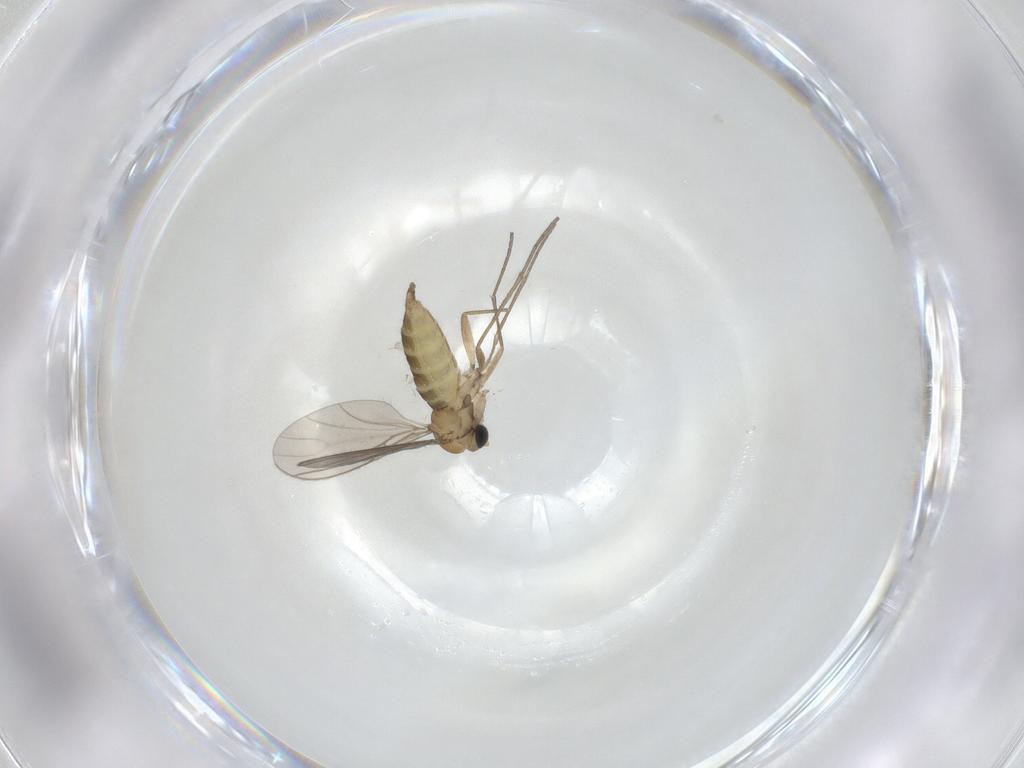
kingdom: Animalia
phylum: Arthropoda
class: Insecta
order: Diptera
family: Sciaridae
